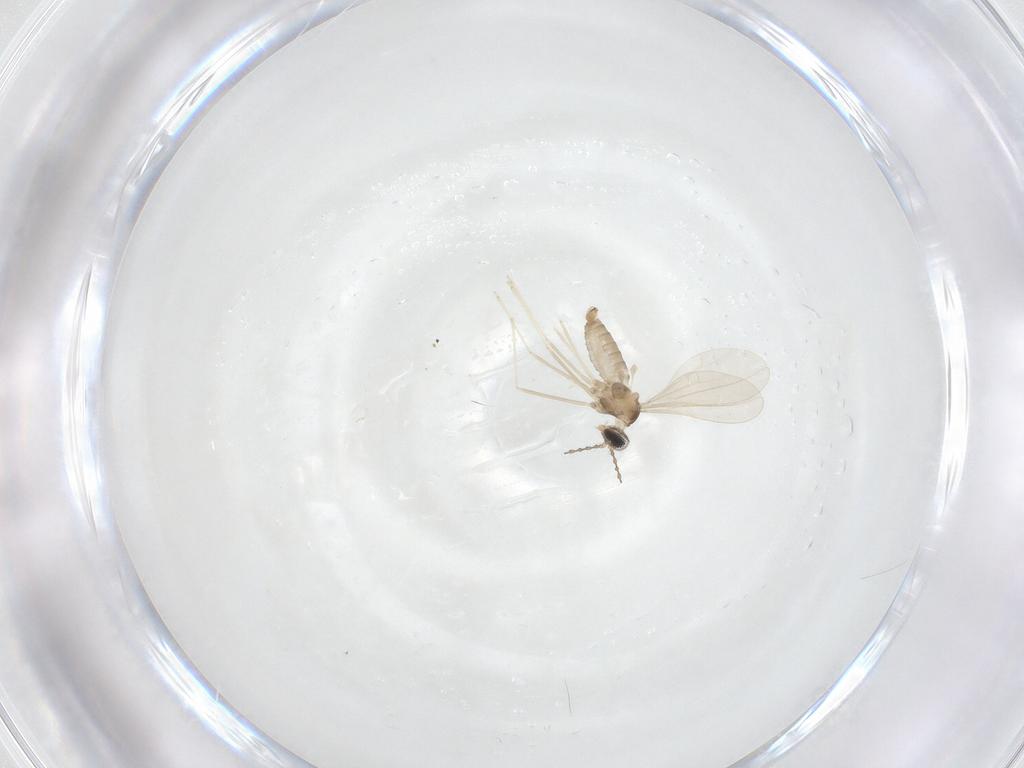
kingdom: Animalia
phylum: Arthropoda
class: Insecta
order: Diptera
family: Cecidomyiidae
